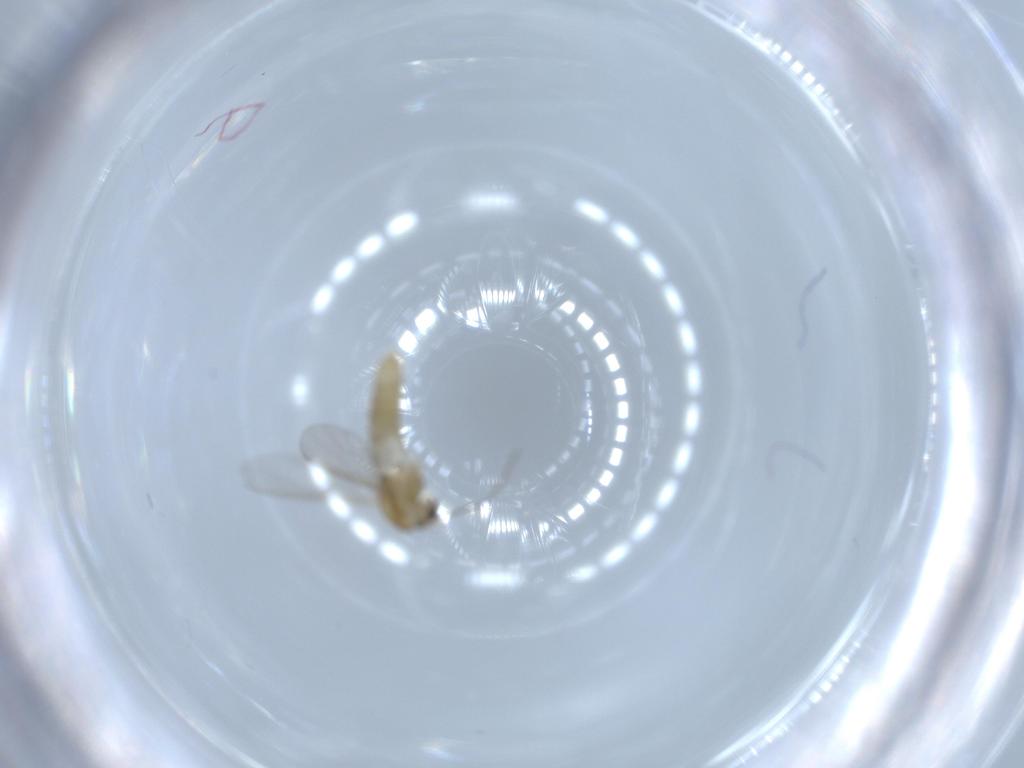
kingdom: Animalia
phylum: Arthropoda
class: Insecta
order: Diptera
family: Chironomidae
